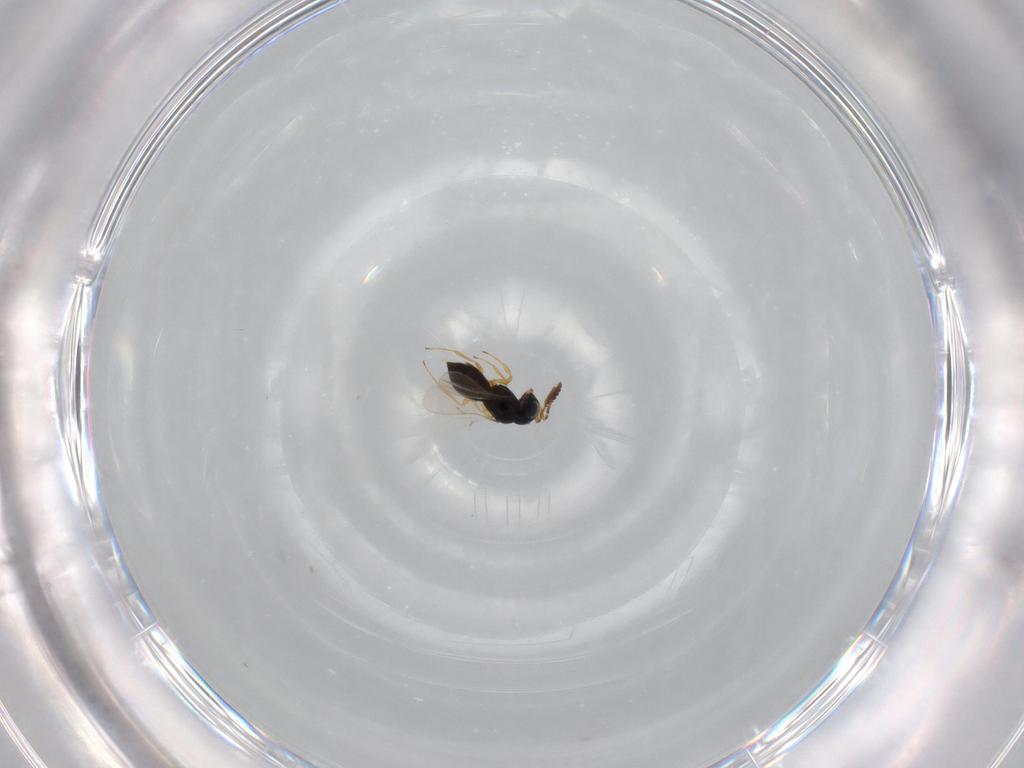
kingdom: Animalia
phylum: Arthropoda
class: Insecta
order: Hymenoptera
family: Scelionidae
